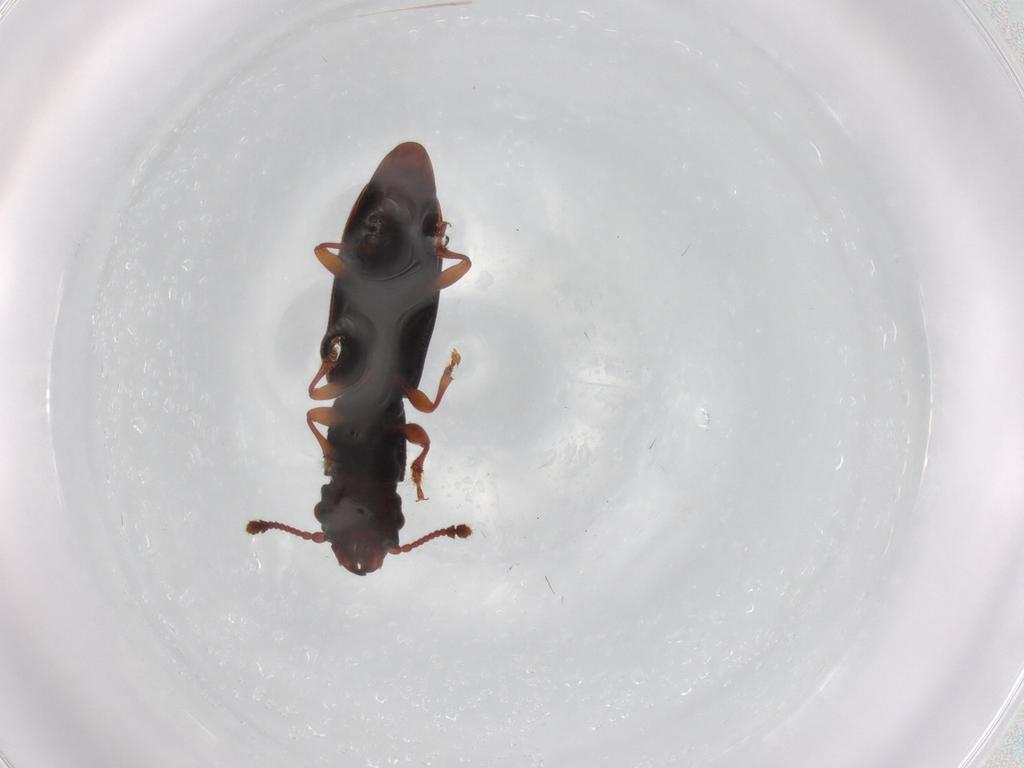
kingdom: Animalia
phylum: Arthropoda
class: Insecta
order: Coleoptera
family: Monotomidae
